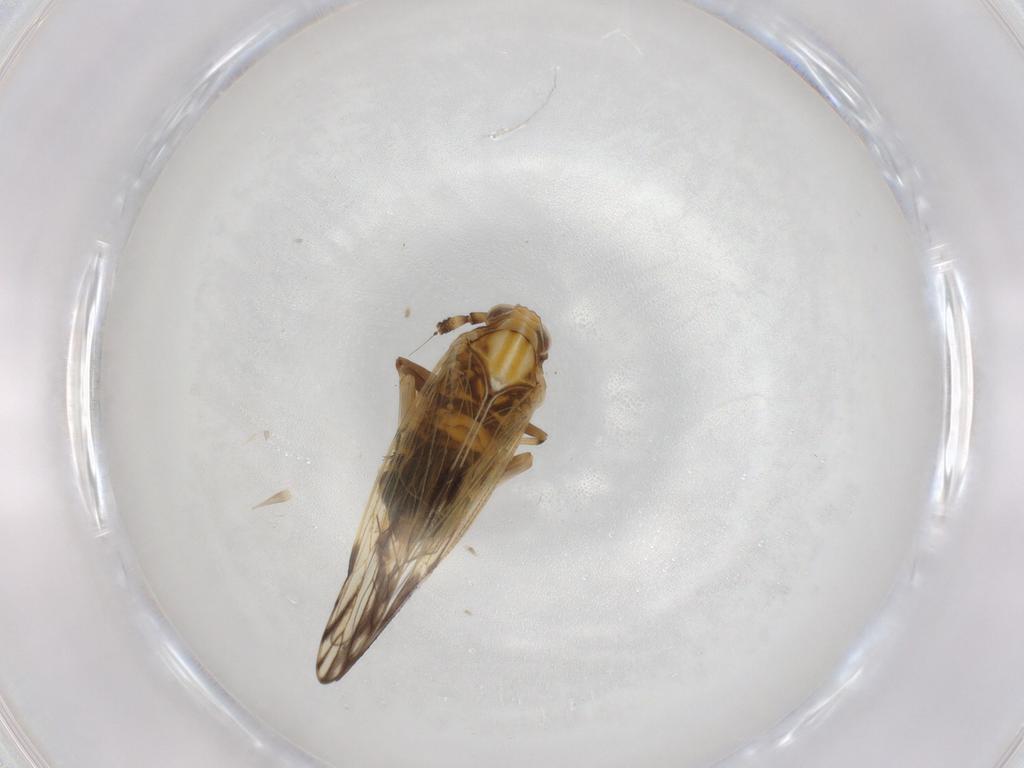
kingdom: Animalia
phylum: Arthropoda
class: Insecta
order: Hemiptera
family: Delphacidae
